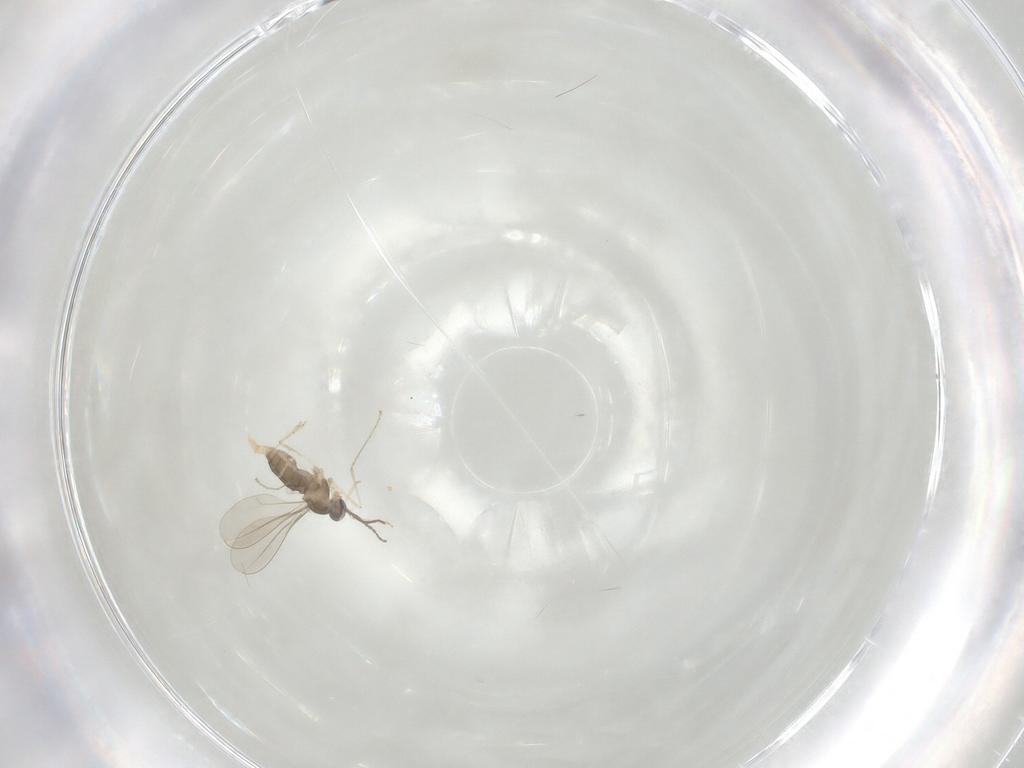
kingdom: Animalia
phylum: Arthropoda
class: Insecta
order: Diptera
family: Cecidomyiidae
